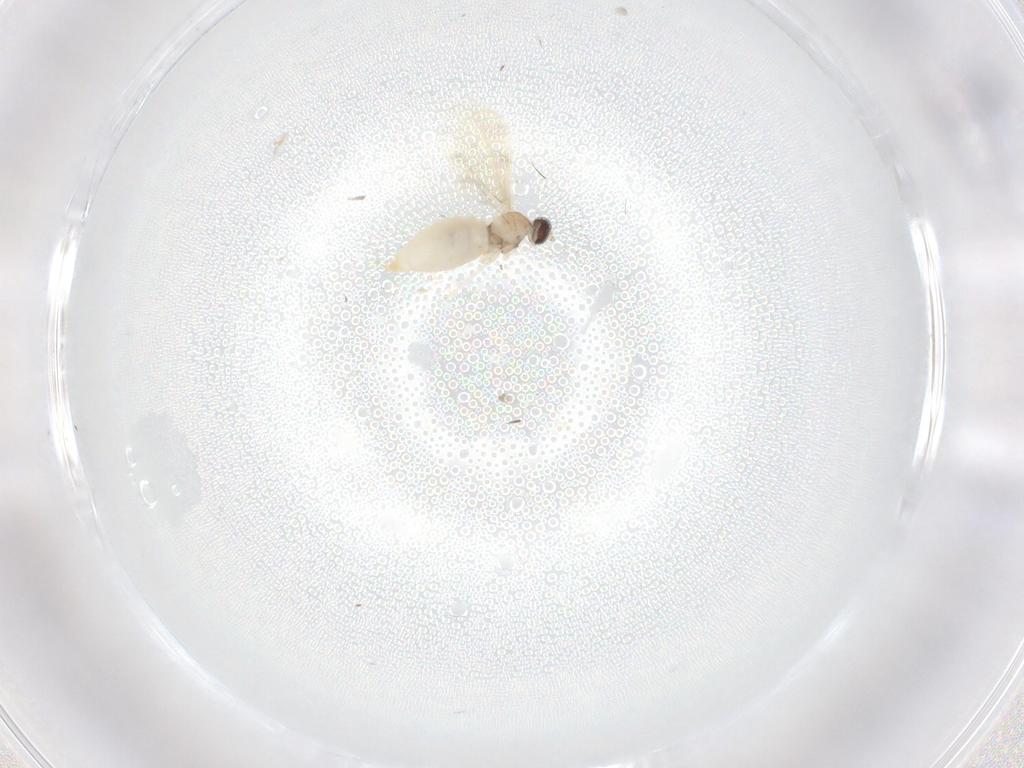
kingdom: Animalia
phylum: Arthropoda
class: Insecta
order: Diptera
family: Cecidomyiidae
